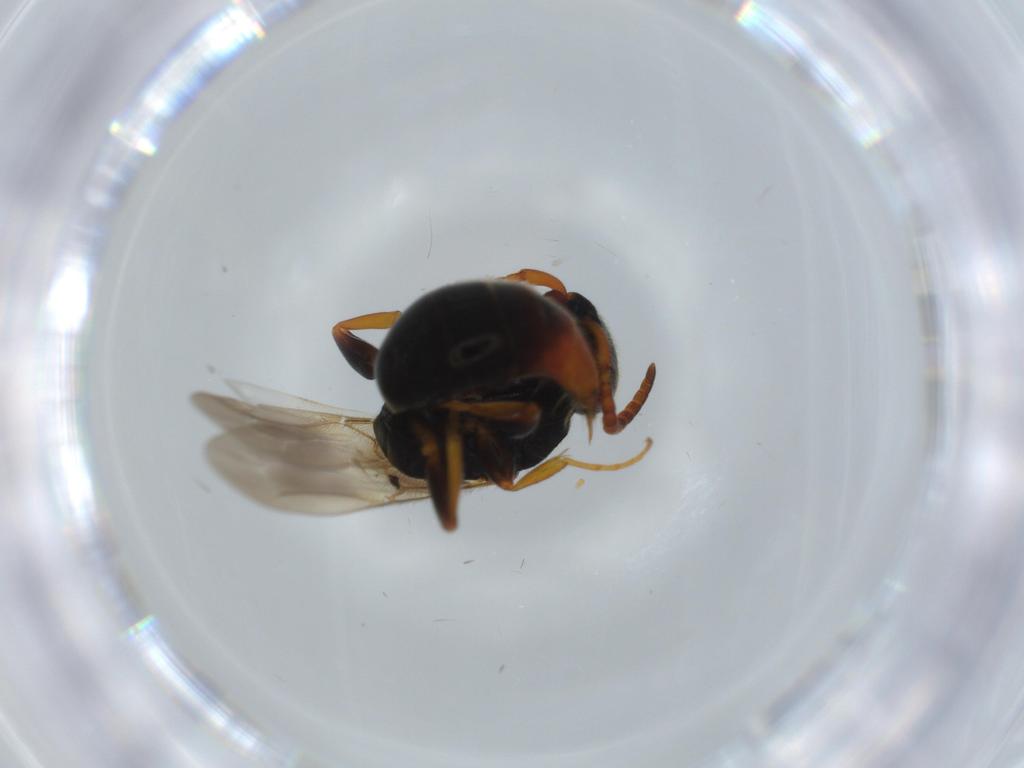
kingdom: Animalia
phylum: Arthropoda
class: Insecta
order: Hymenoptera
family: Bethylidae
